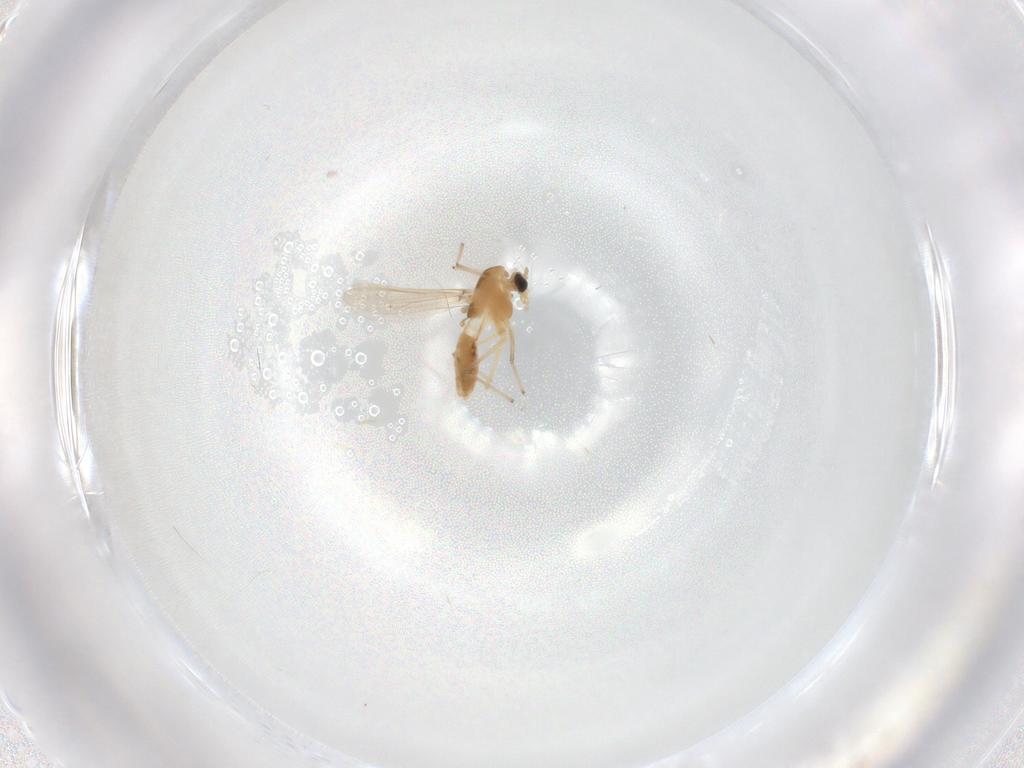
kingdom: Animalia
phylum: Arthropoda
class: Insecta
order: Diptera
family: Chironomidae
